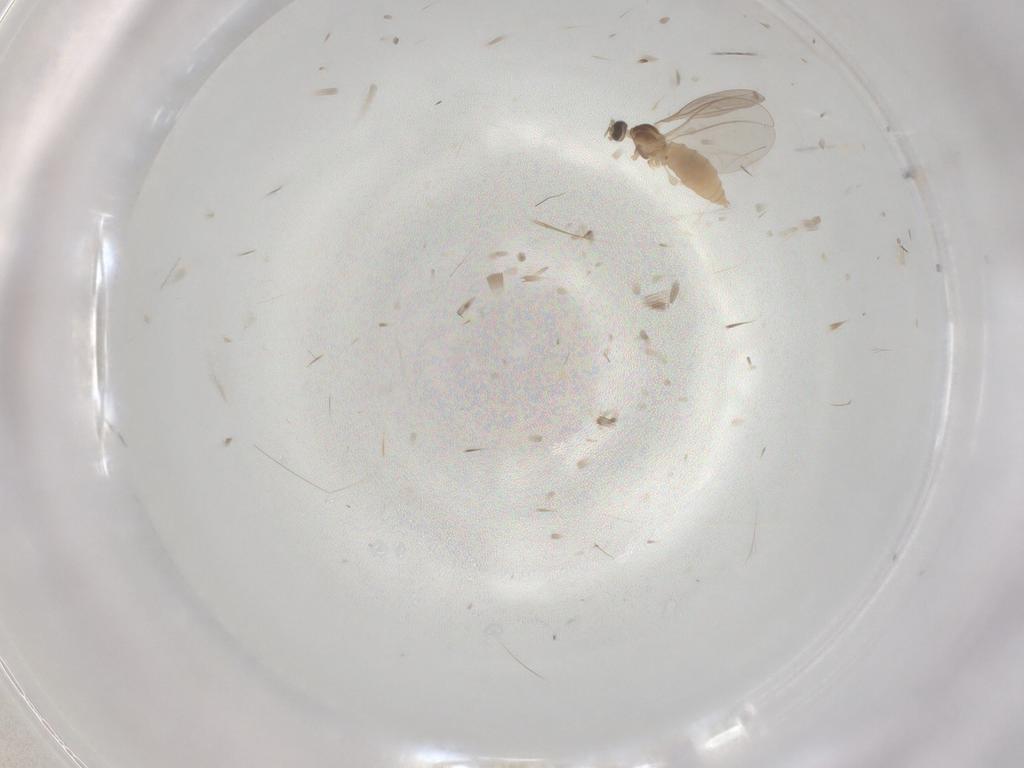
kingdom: Animalia
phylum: Arthropoda
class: Insecta
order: Diptera
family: Cecidomyiidae
